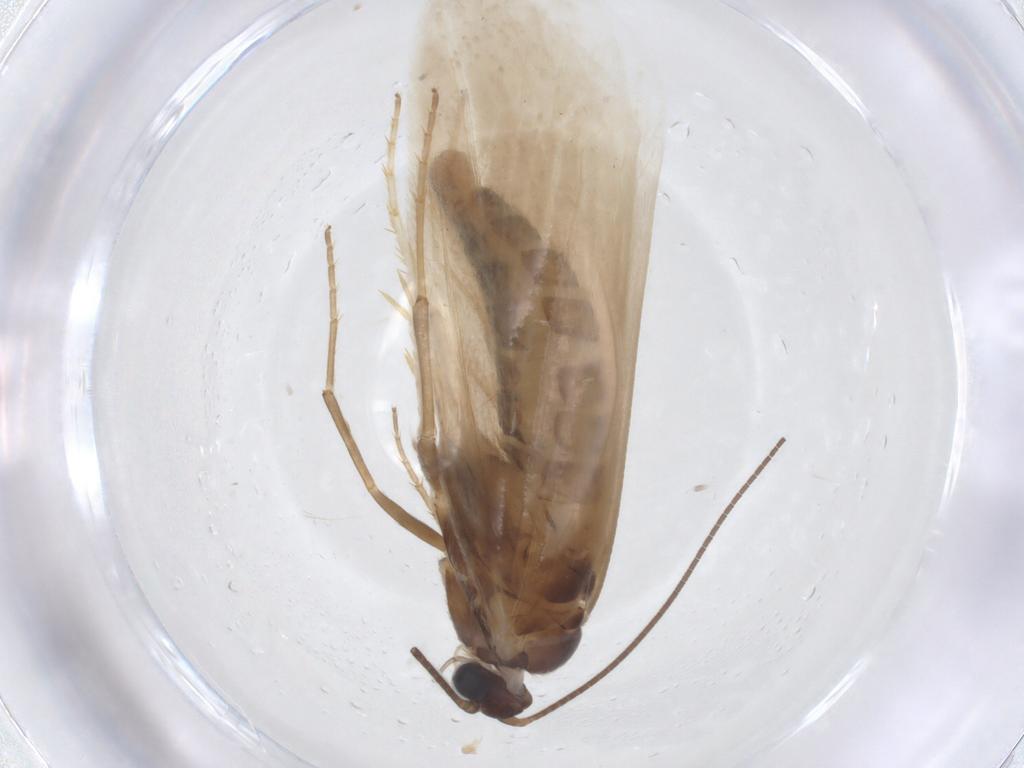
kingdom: Animalia
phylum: Arthropoda
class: Insecta
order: Lepidoptera
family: Tridentaformidae
